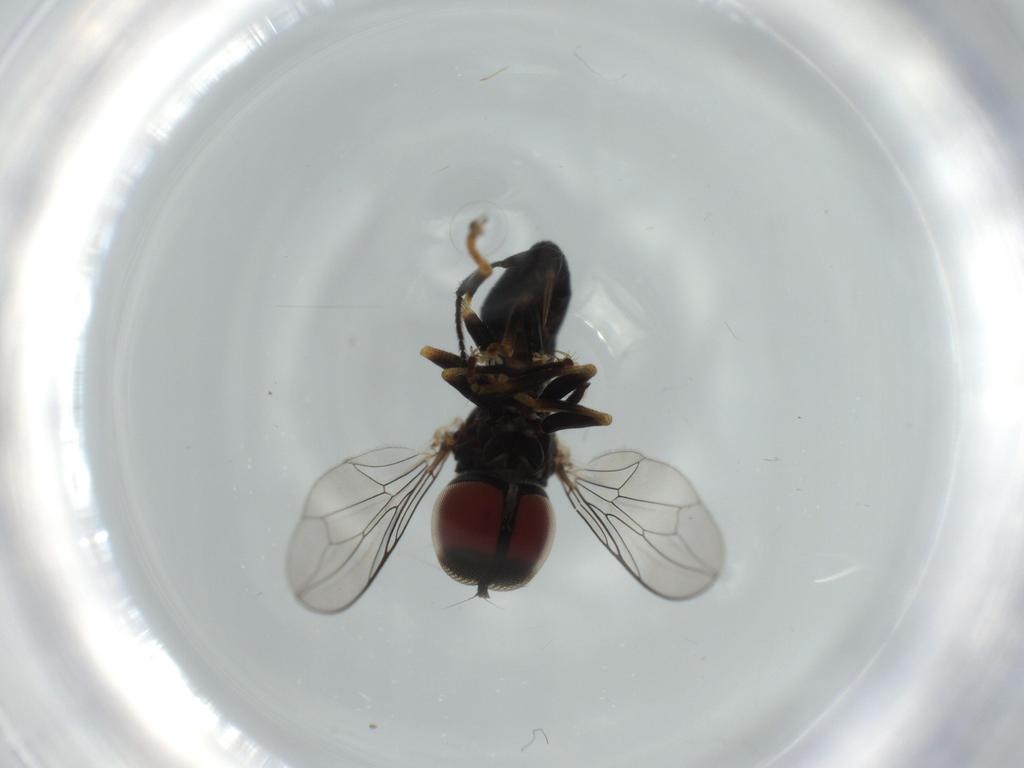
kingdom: Animalia
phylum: Arthropoda
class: Insecta
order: Diptera
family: Pipunculidae
